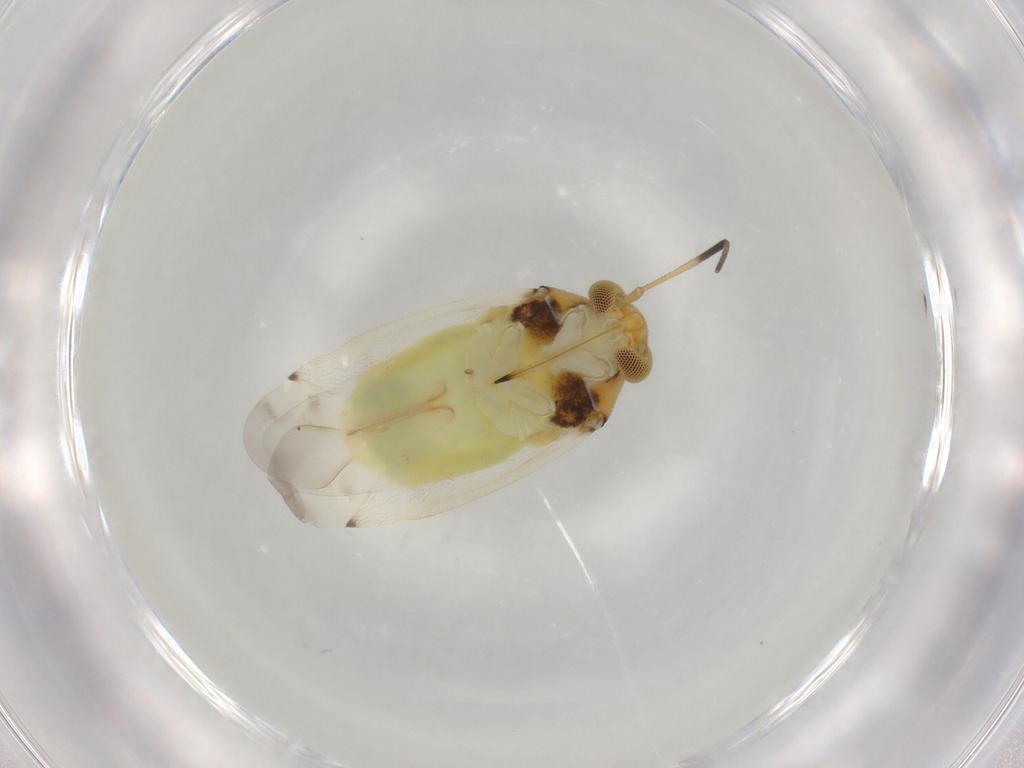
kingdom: Animalia
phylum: Arthropoda
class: Insecta
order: Hemiptera
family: Miridae
